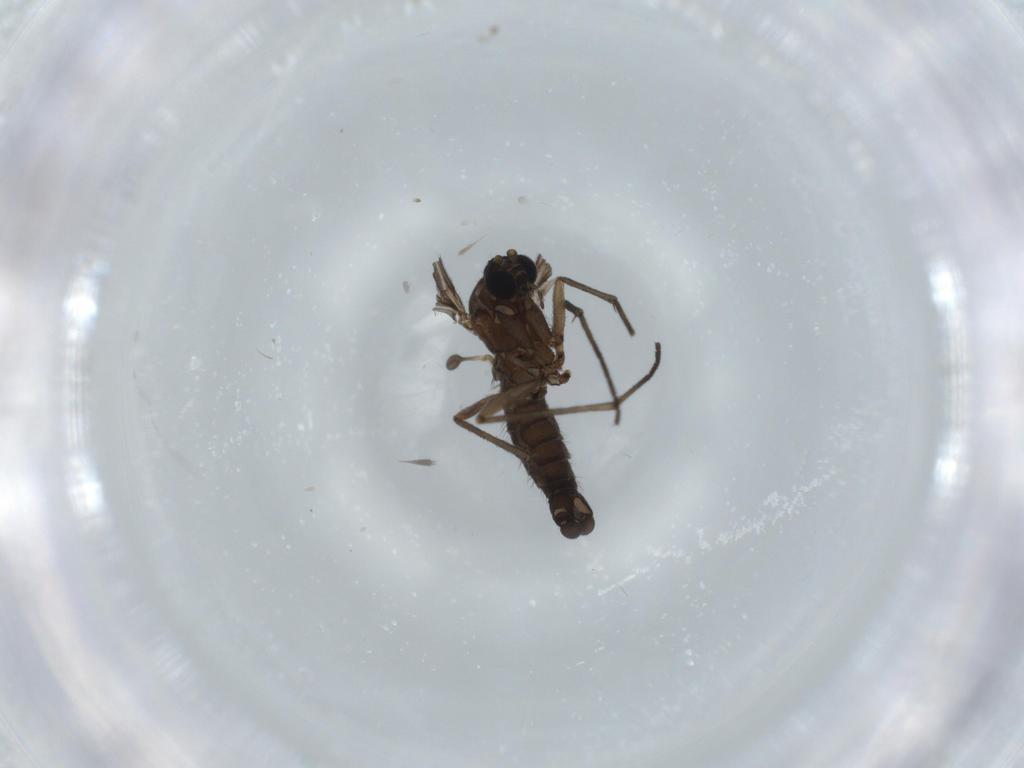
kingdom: Animalia
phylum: Arthropoda
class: Insecta
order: Diptera
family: Sciaridae
